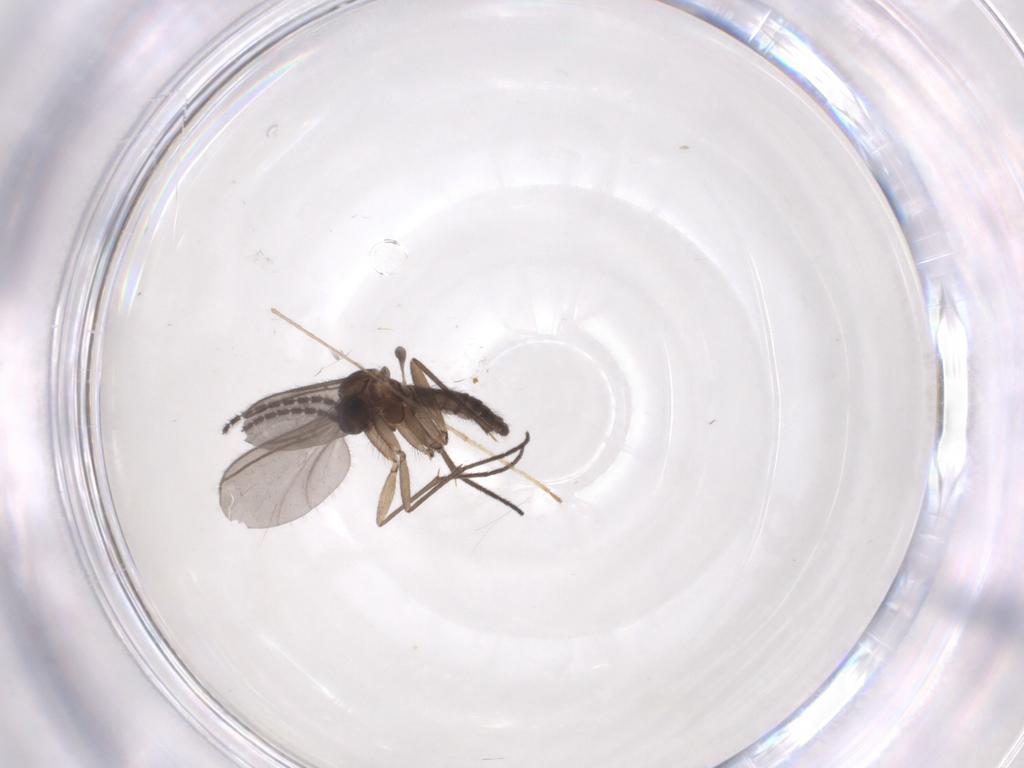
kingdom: Animalia
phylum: Arthropoda
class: Insecta
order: Diptera
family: Sciaridae
